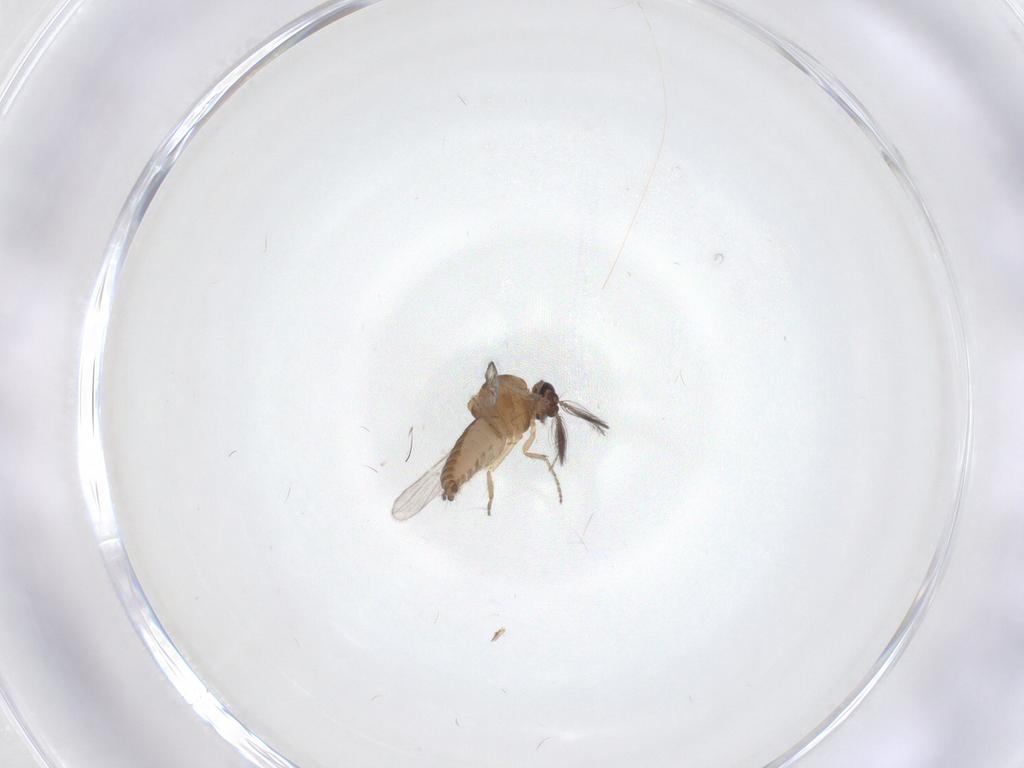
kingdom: Animalia
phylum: Arthropoda
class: Insecta
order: Diptera
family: Ceratopogonidae
